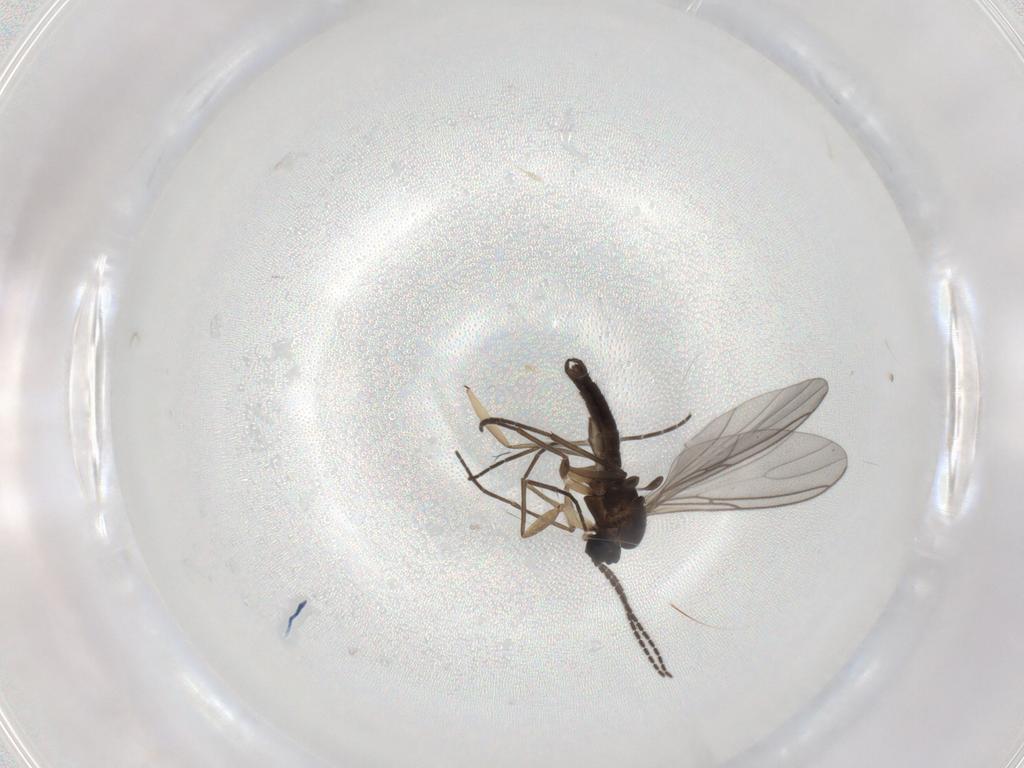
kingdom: Animalia
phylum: Arthropoda
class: Insecta
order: Diptera
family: Sciaridae
